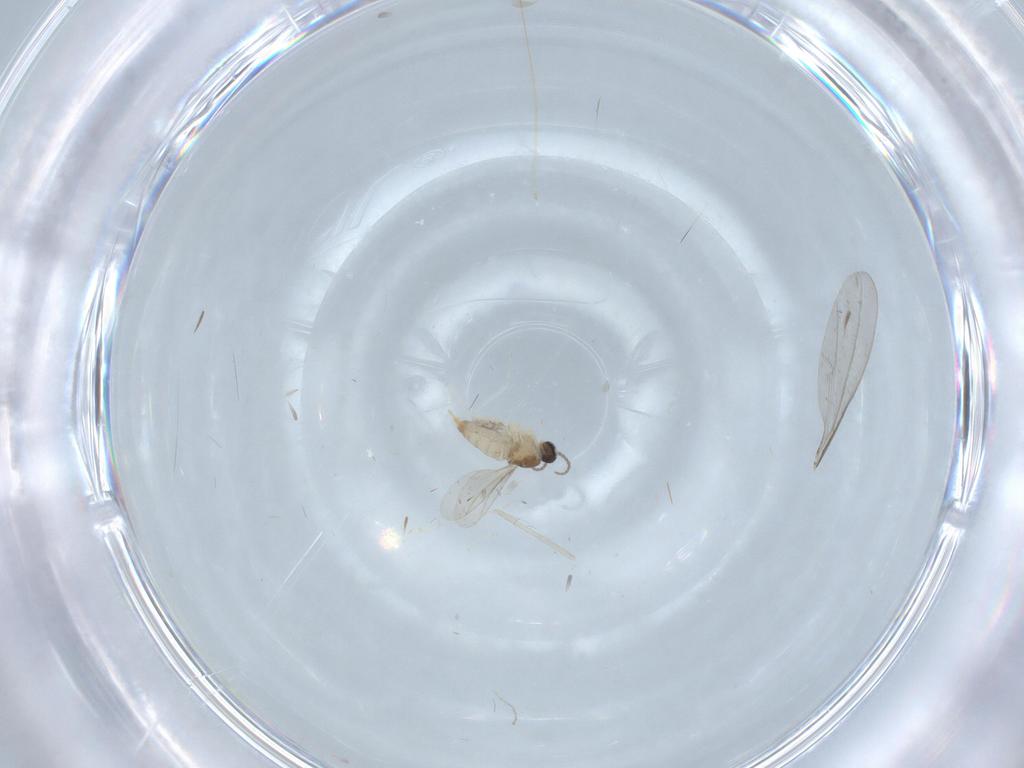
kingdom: Animalia
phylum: Arthropoda
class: Insecta
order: Diptera
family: Cecidomyiidae
